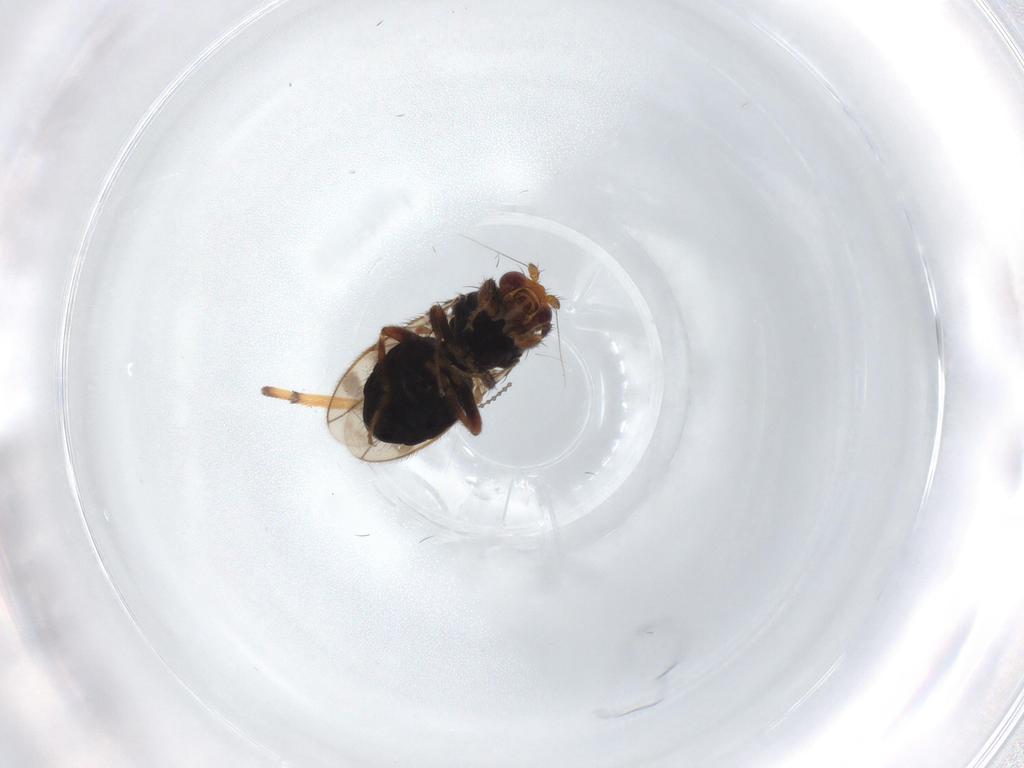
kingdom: Animalia
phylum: Arthropoda
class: Insecta
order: Diptera
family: Sphaeroceridae
